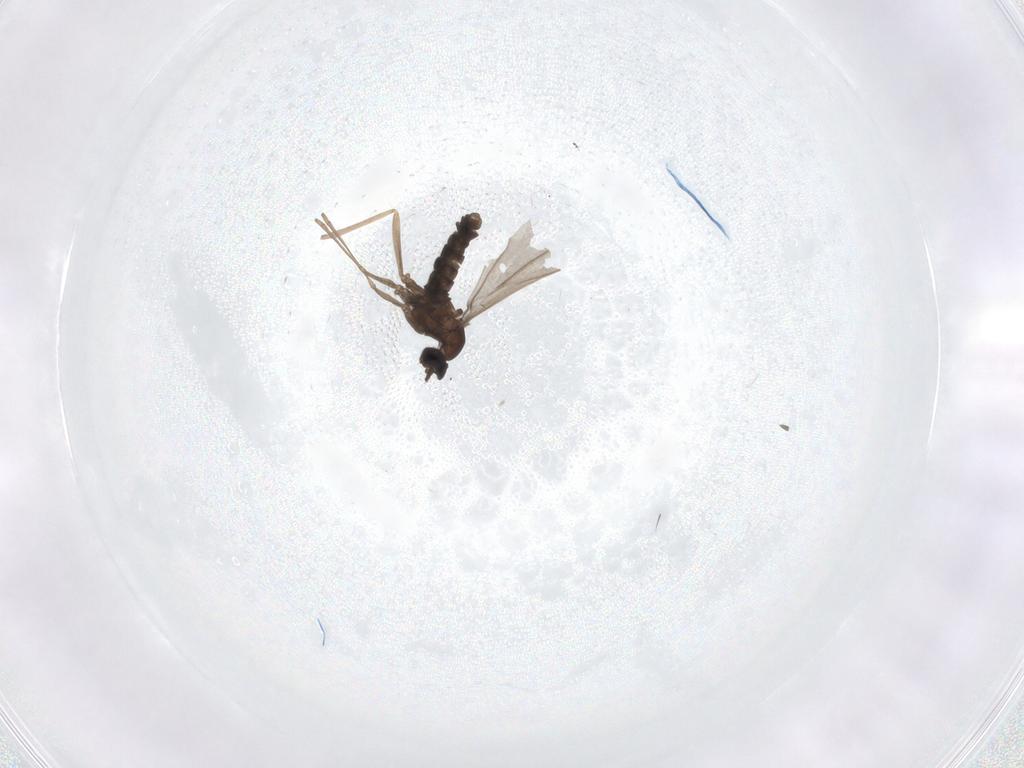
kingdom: Animalia
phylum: Arthropoda
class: Insecta
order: Diptera
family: Cecidomyiidae
